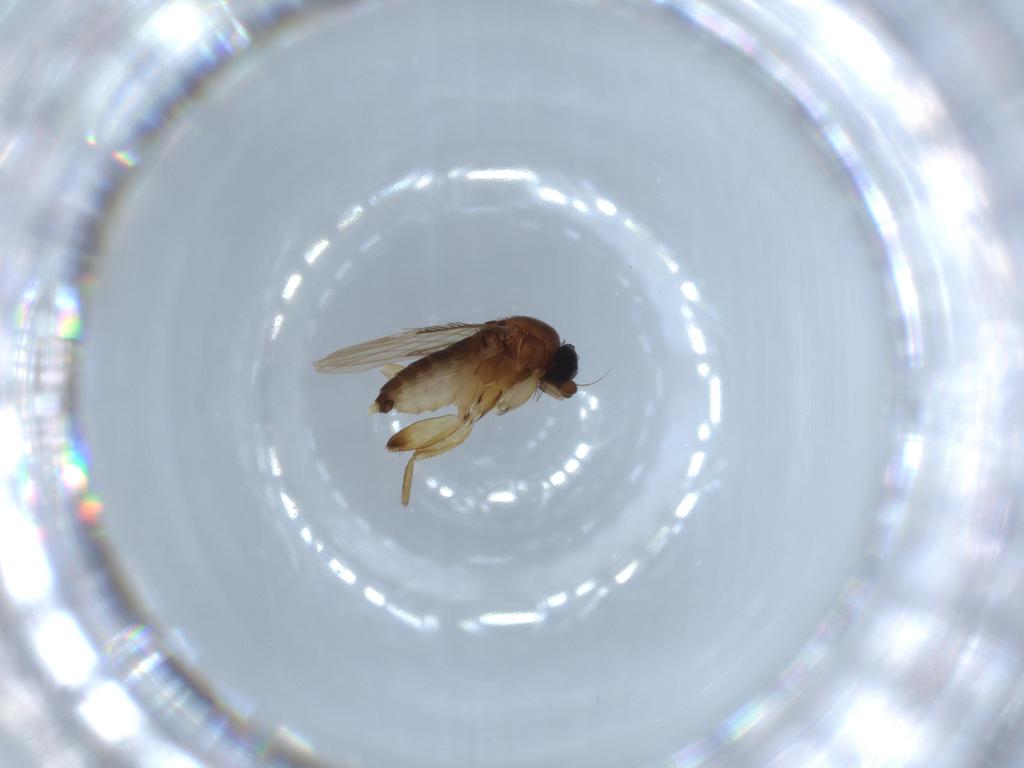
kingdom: Animalia
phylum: Arthropoda
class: Insecta
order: Diptera
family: Phoridae
